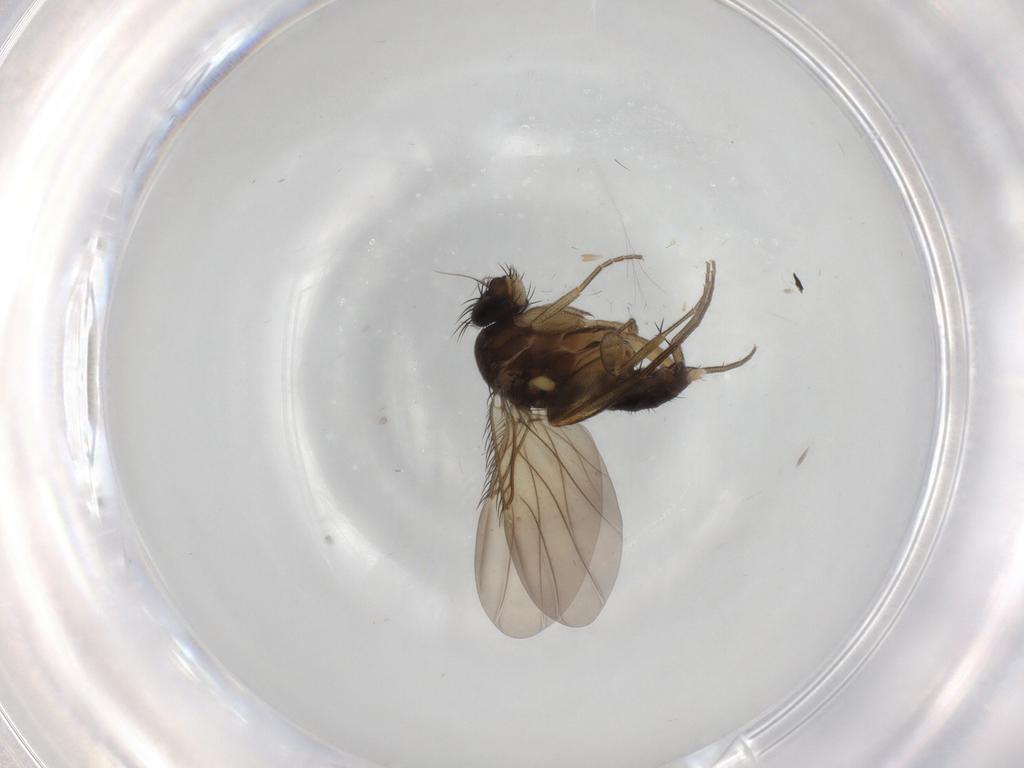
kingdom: Animalia
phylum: Arthropoda
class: Insecta
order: Diptera
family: Phoridae
